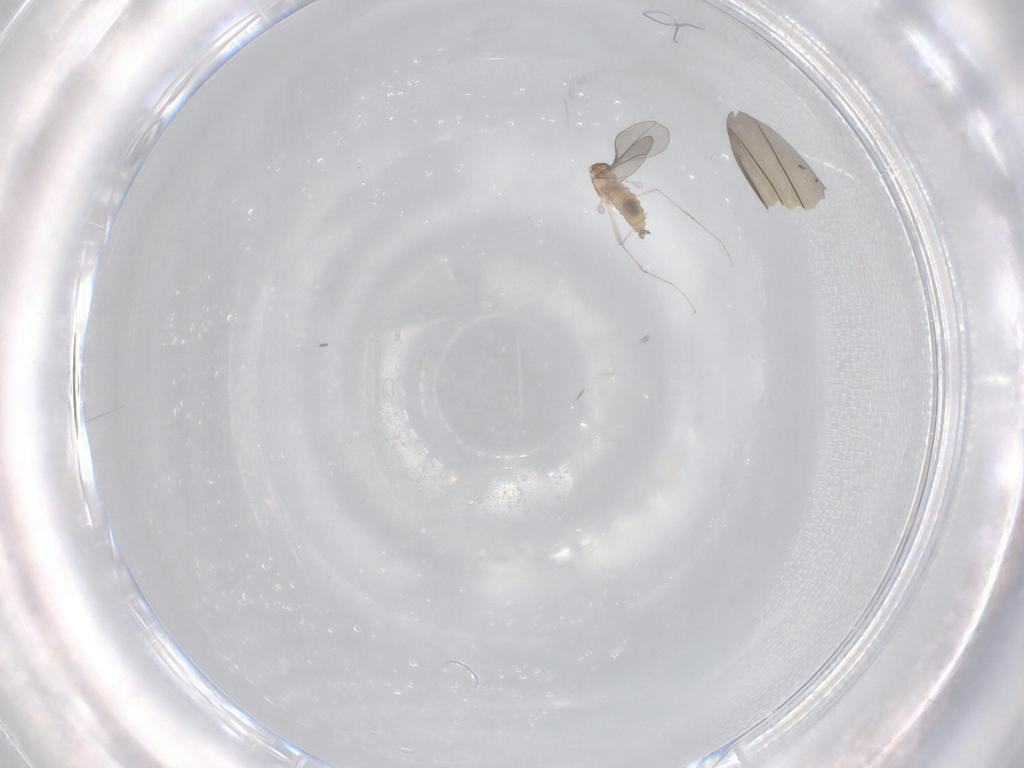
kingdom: Animalia
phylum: Arthropoda
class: Insecta
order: Diptera
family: Cecidomyiidae
